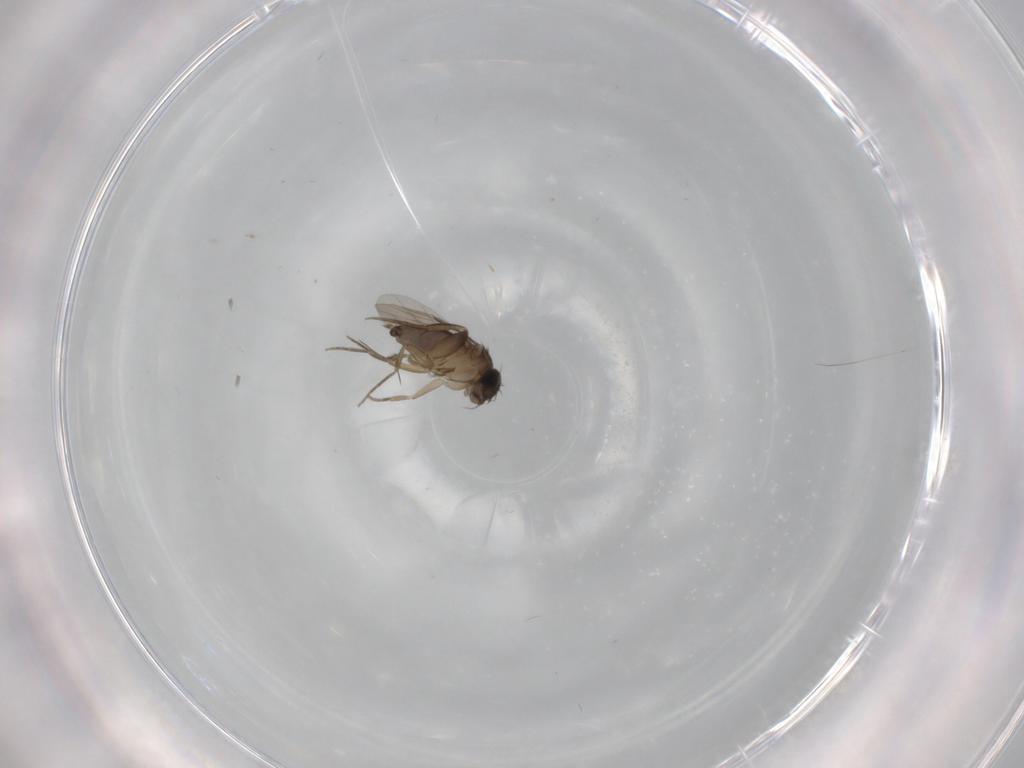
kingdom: Animalia
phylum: Arthropoda
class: Insecta
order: Diptera
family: Phoridae
